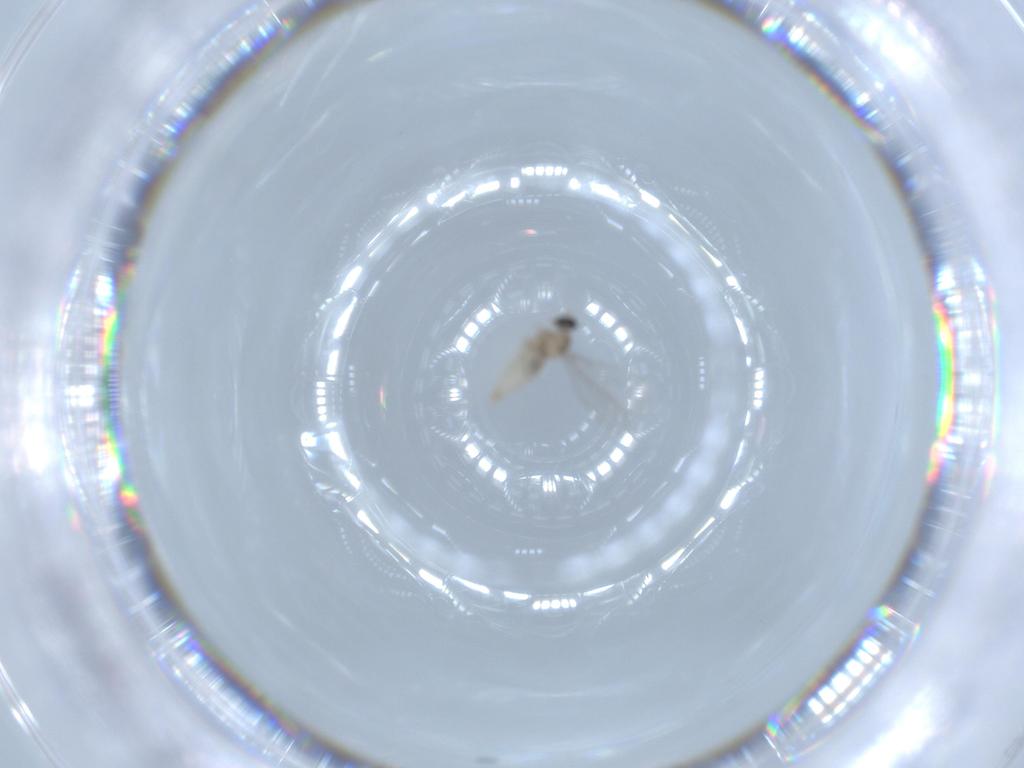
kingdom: Animalia
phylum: Arthropoda
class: Insecta
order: Diptera
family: Cecidomyiidae
